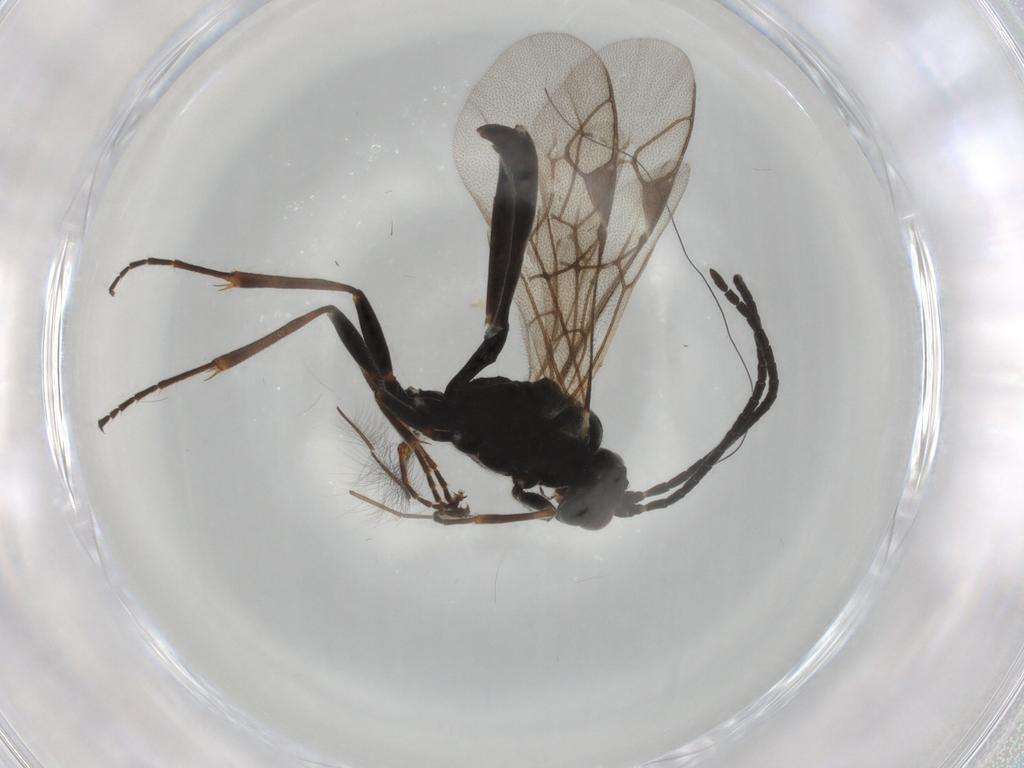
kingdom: Animalia
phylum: Arthropoda
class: Insecta
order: Hymenoptera
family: Ichneumonidae
